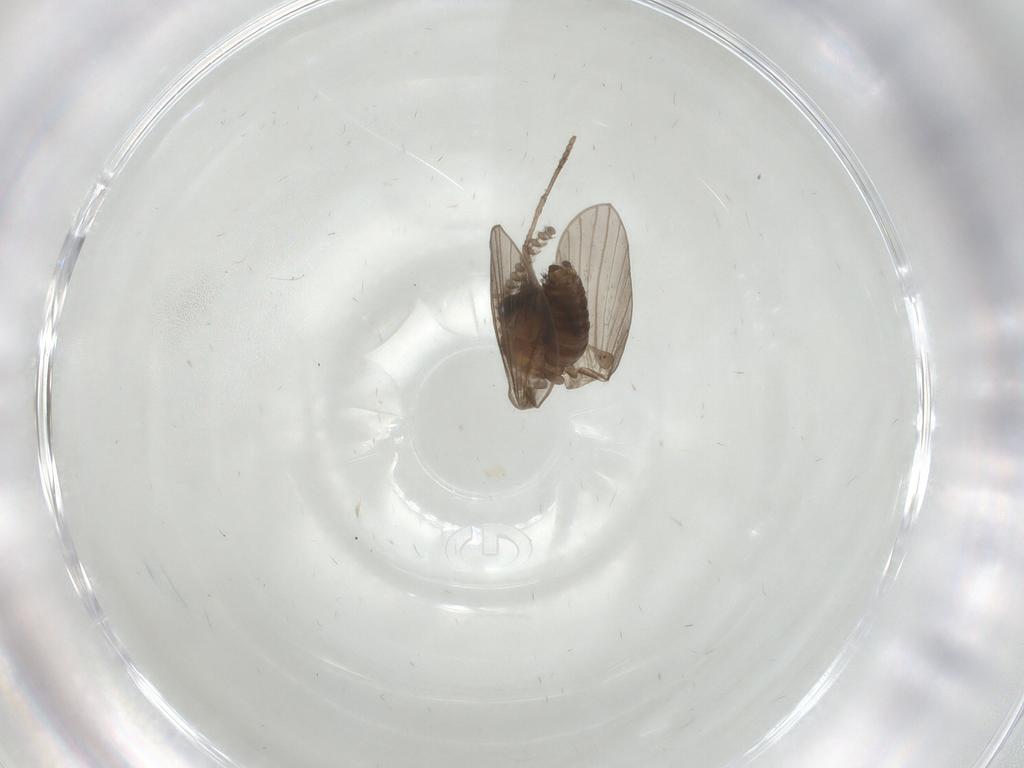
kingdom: Animalia
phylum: Arthropoda
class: Insecta
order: Diptera
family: Psychodidae
